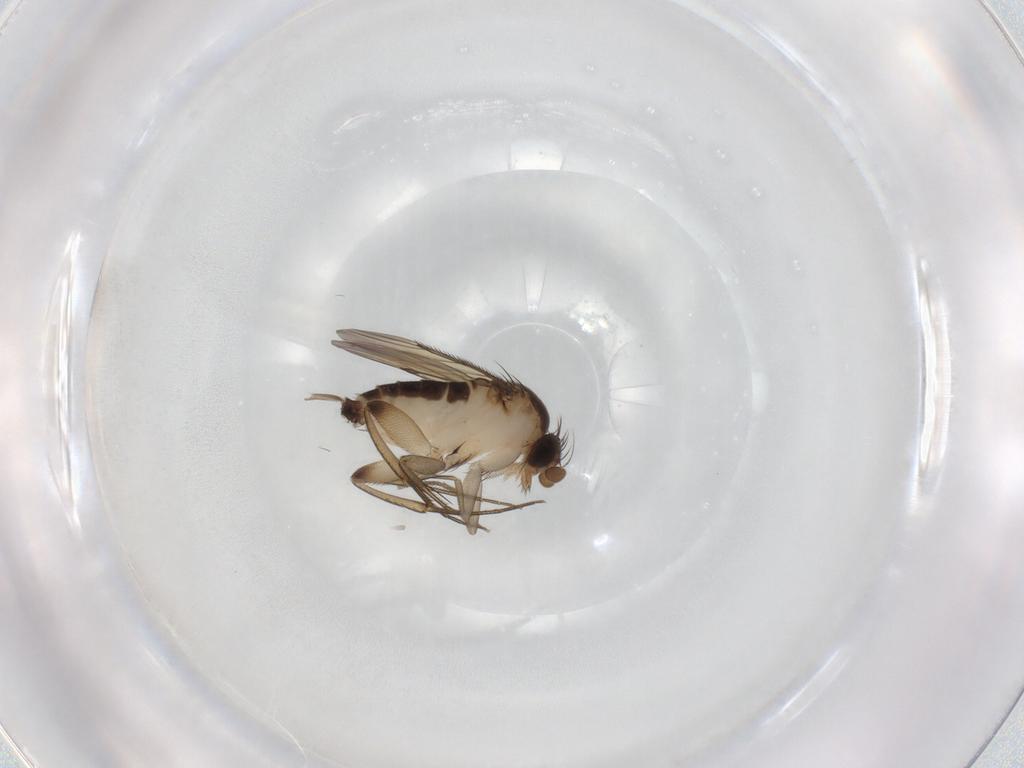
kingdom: Animalia
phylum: Arthropoda
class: Insecta
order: Diptera
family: Phoridae
